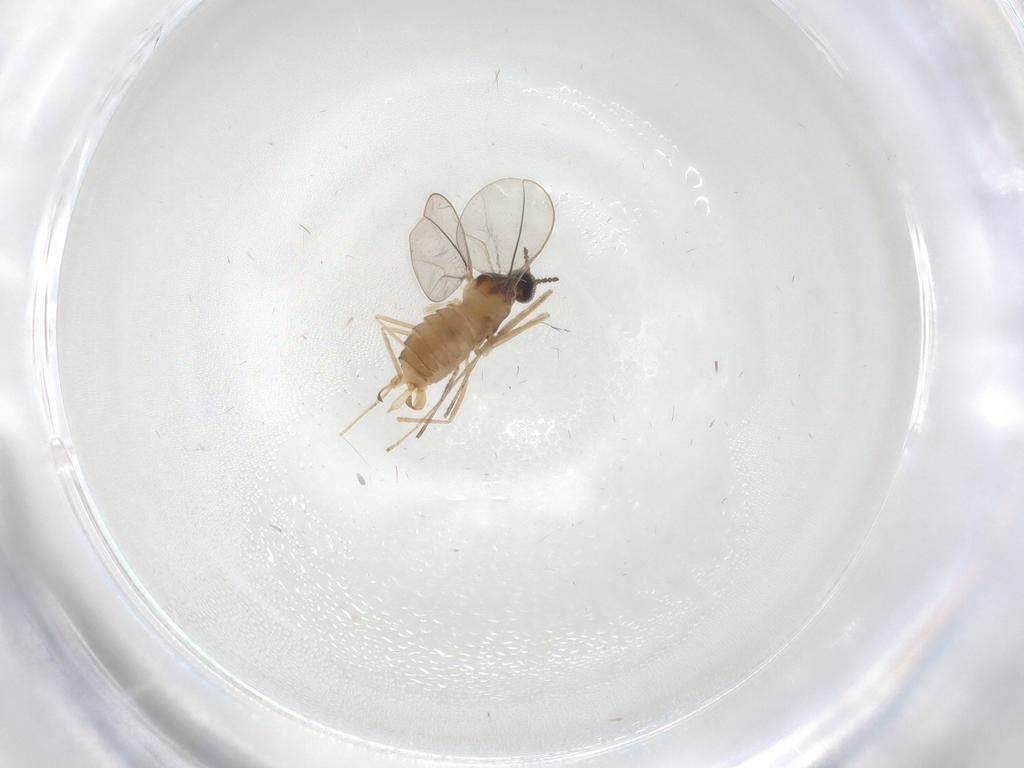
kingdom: Animalia
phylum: Arthropoda
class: Insecta
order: Diptera
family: Cecidomyiidae
